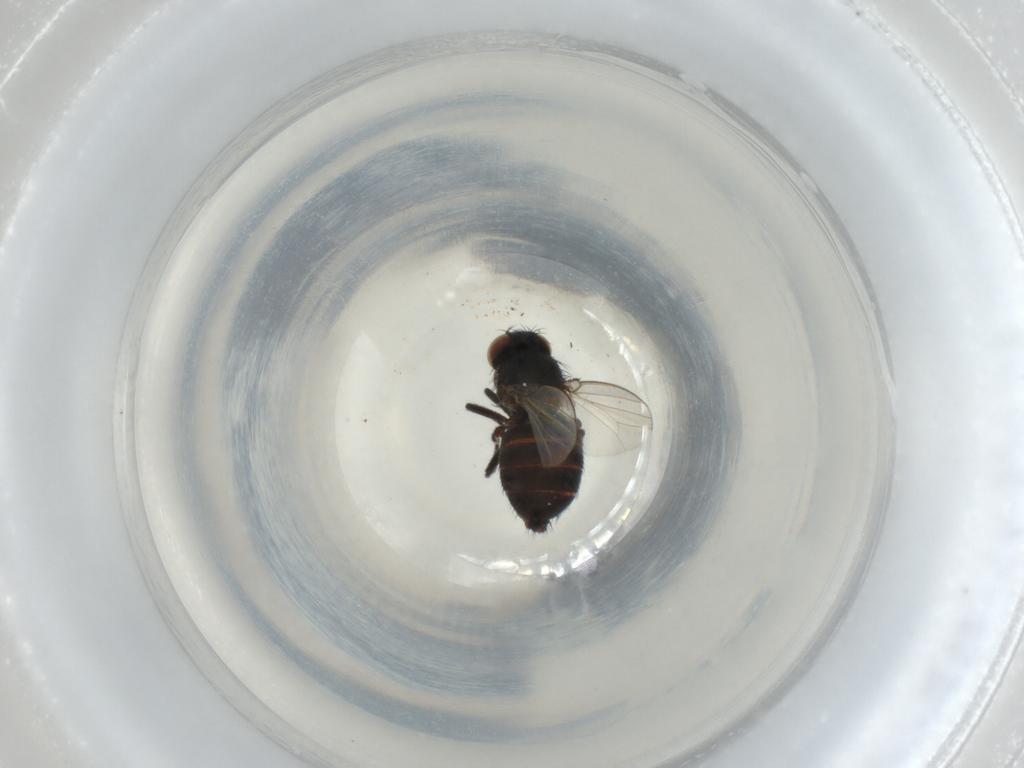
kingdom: Animalia
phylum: Arthropoda
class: Insecta
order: Diptera
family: Milichiidae
